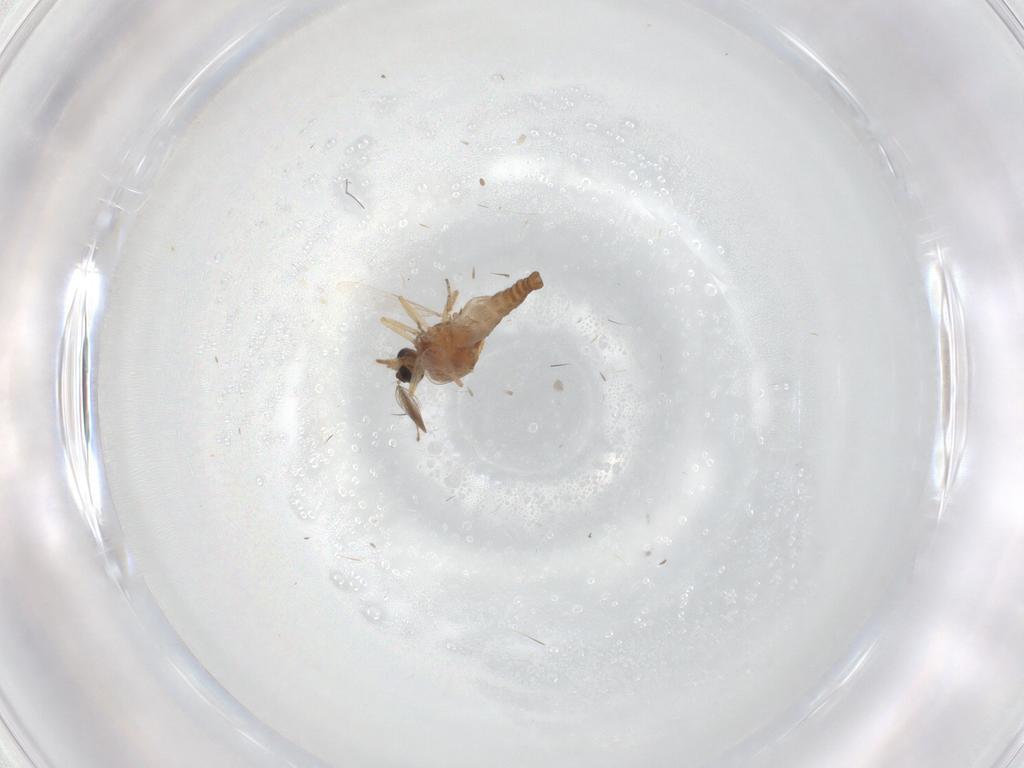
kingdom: Animalia
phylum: Arthropoda
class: Insecta
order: Diptera
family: Ceratopogonidae
